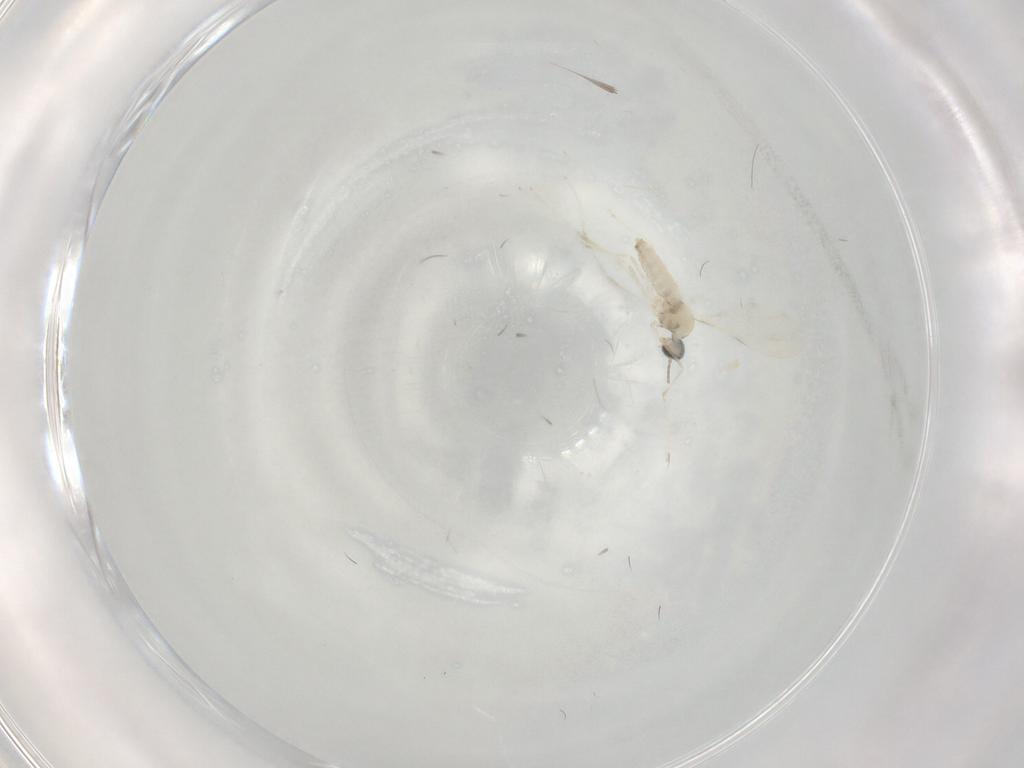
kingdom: Animalia
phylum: Arthropoda
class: Insecta
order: Diptera
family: Cecidomyiidae
